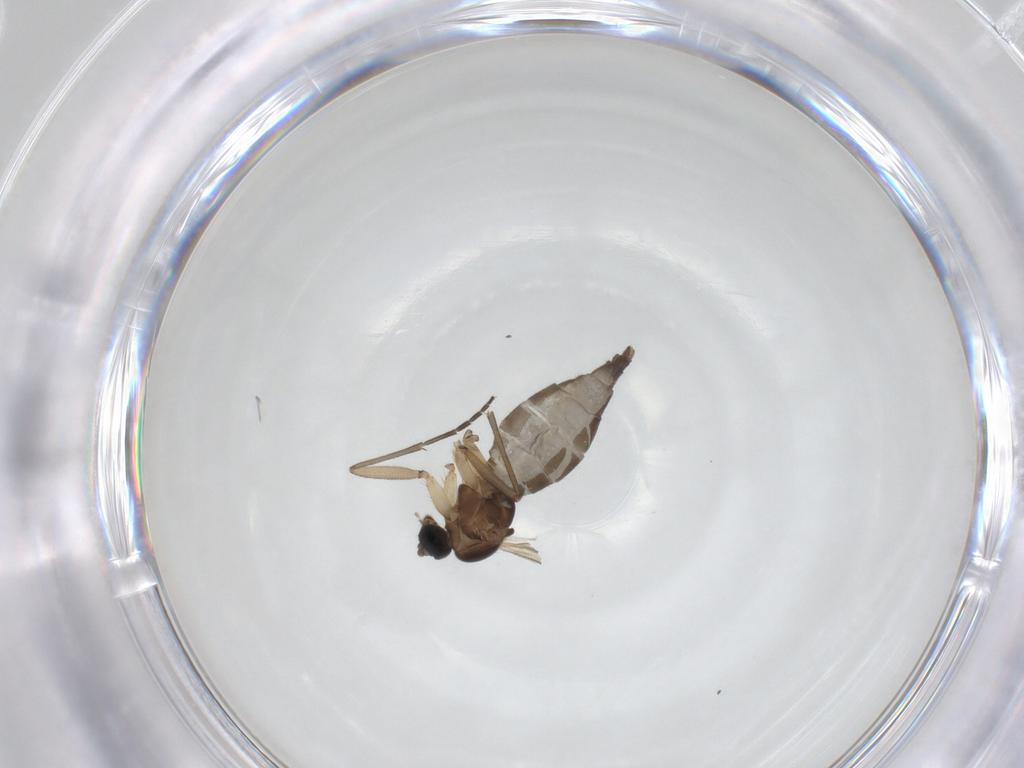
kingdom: Animalia
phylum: Arthropoda
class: Insecta
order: Diptera
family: Sciaridae
